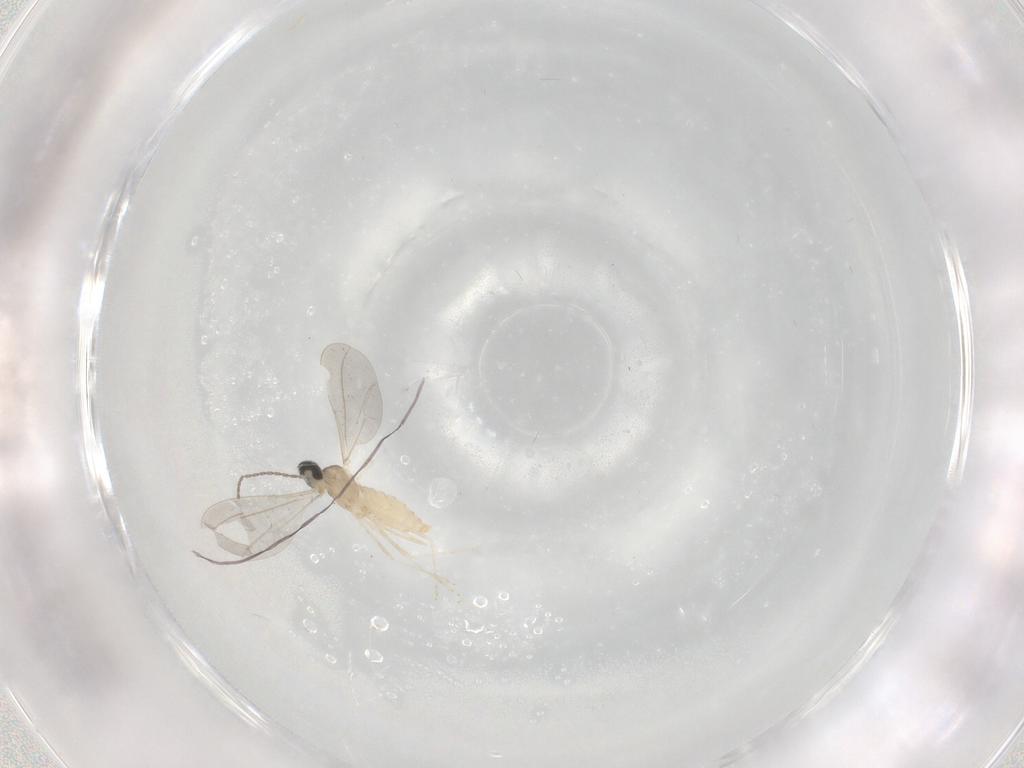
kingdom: Animalia
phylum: Arthropoda
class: Insecta
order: Diptera
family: Cecidomyiidae
